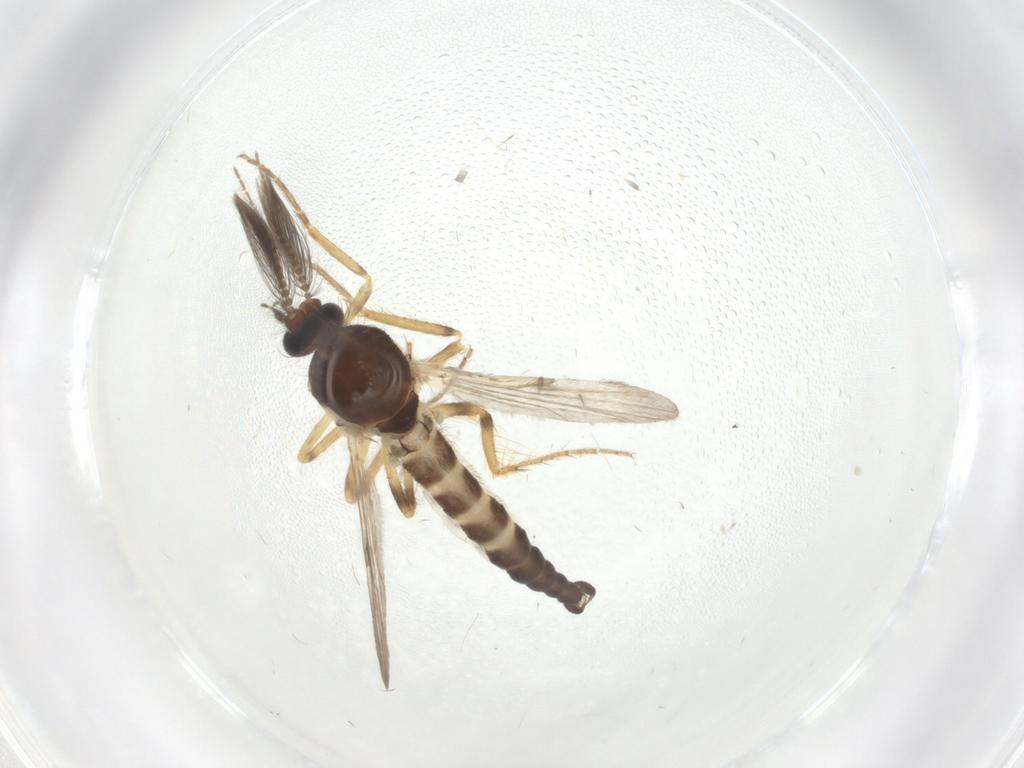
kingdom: Animalia
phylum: Arthropoda
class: Insecta
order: Diptera
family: Ceratopogonidae
